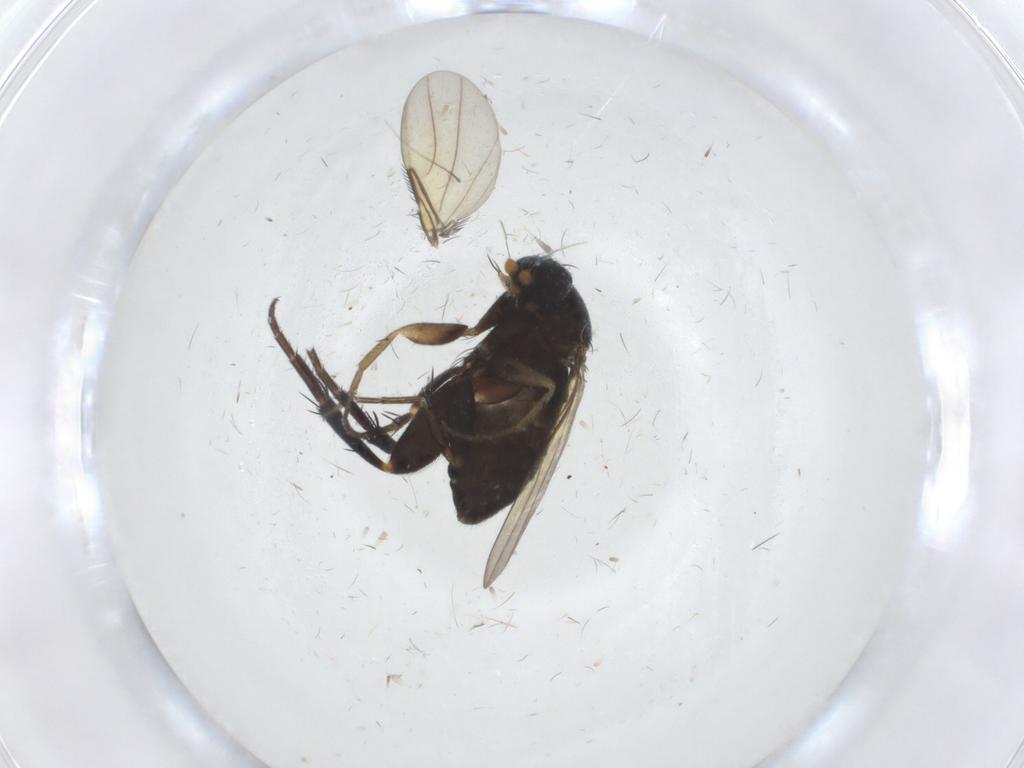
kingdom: Animalia
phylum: Arthropoda
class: Insecta
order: Diptera
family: Phoridae
